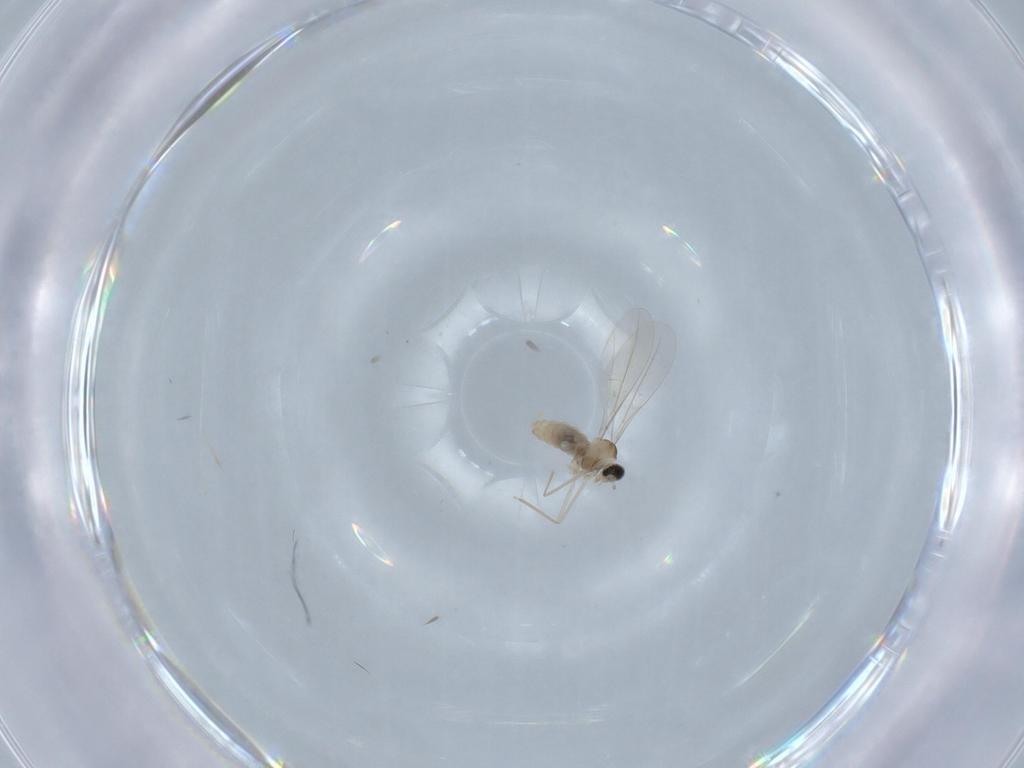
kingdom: Animalia
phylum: Arthropoda
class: Insecta
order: Diptera
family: Cecidomyiidae
